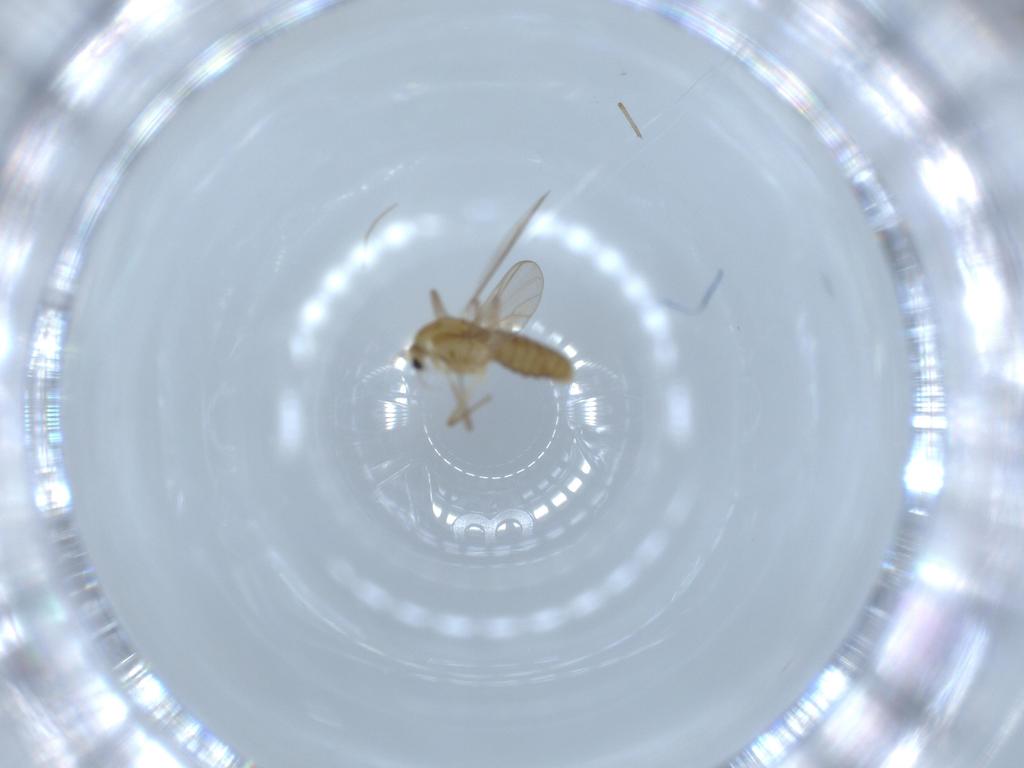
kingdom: Animalia
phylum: Arthropoda
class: Insecta
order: Diptera
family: Chironomidae
